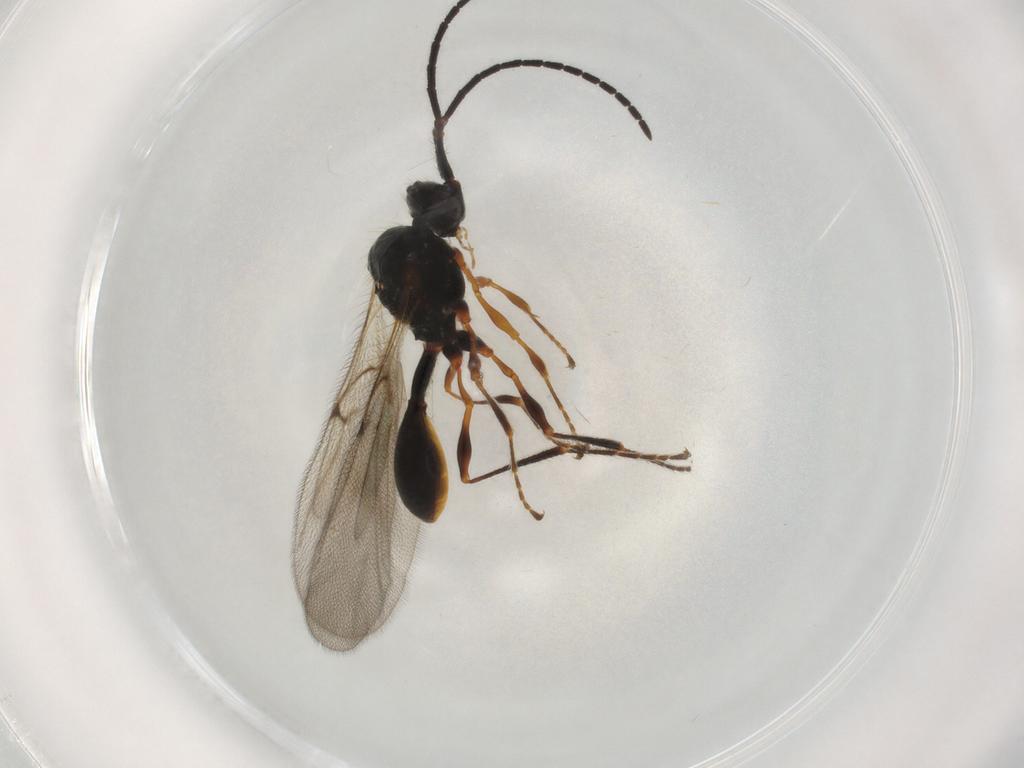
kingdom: Animalia
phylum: Arthropoda
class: Insecta
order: Hymenoptera
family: Diapriidae
